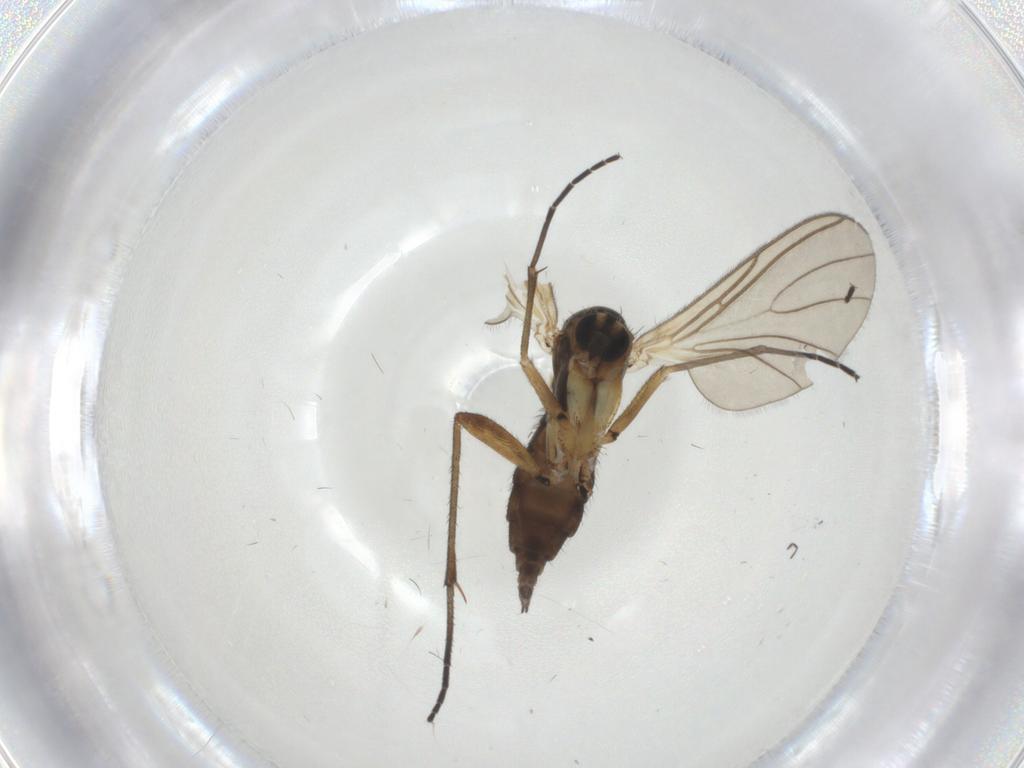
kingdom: Animalia
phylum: Arthropoda
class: Insecta
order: Diptera
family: Sciaridae
